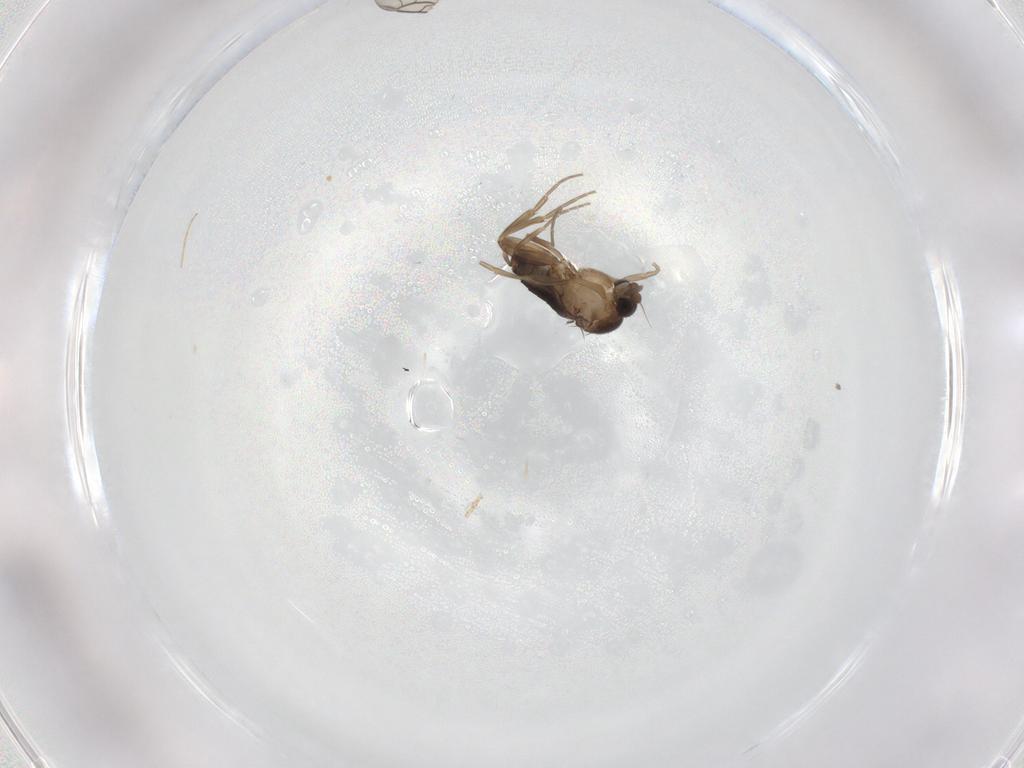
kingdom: Animalia
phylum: Arthropoda
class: Insecta
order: Diptera
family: Phoridae
